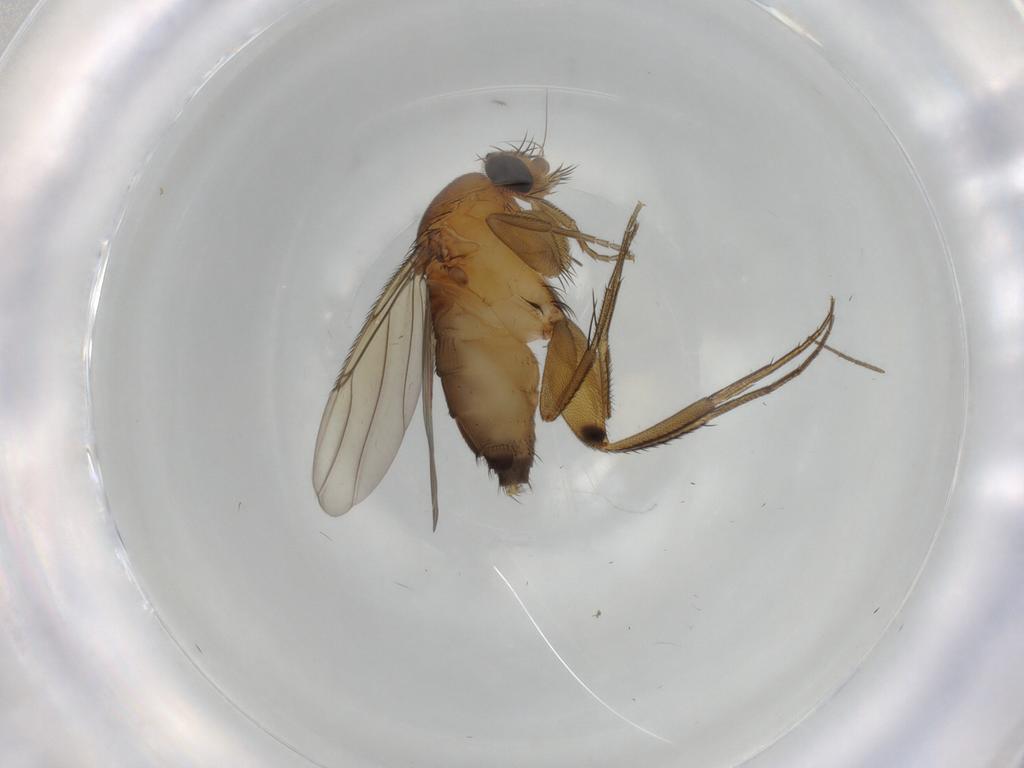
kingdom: Animalia
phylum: Arthropoda
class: Insecta
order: Diptera
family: Phoridae
